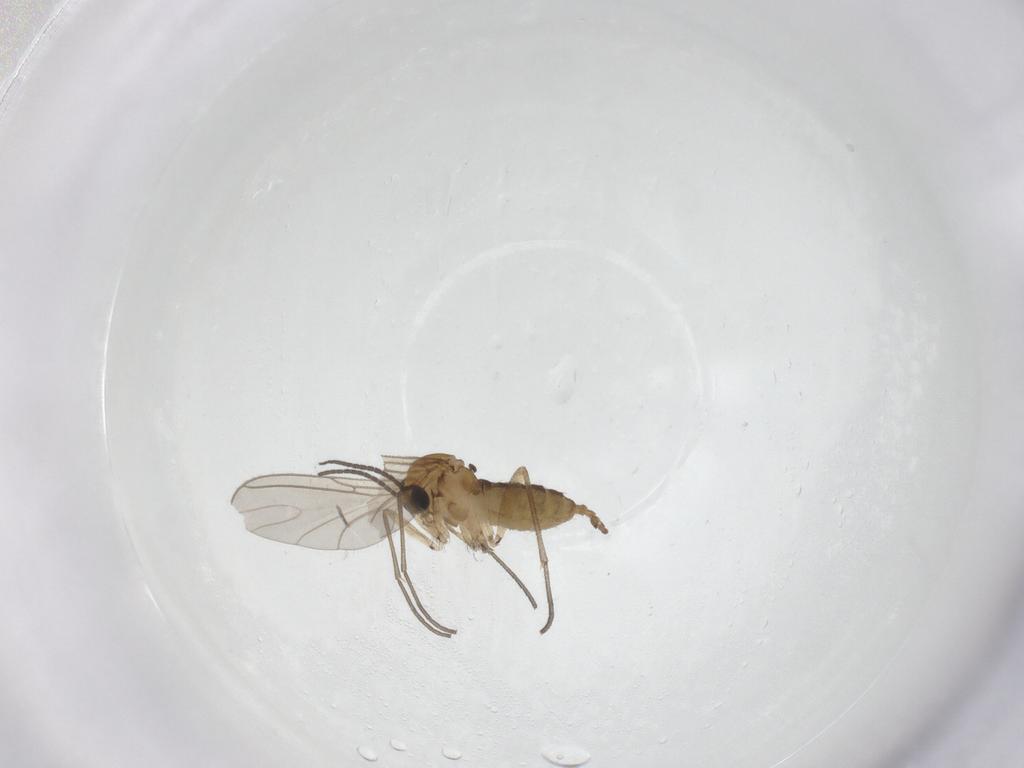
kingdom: Animalia
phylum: Arthropoda
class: Insecta
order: Diptera
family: Sciaridae
